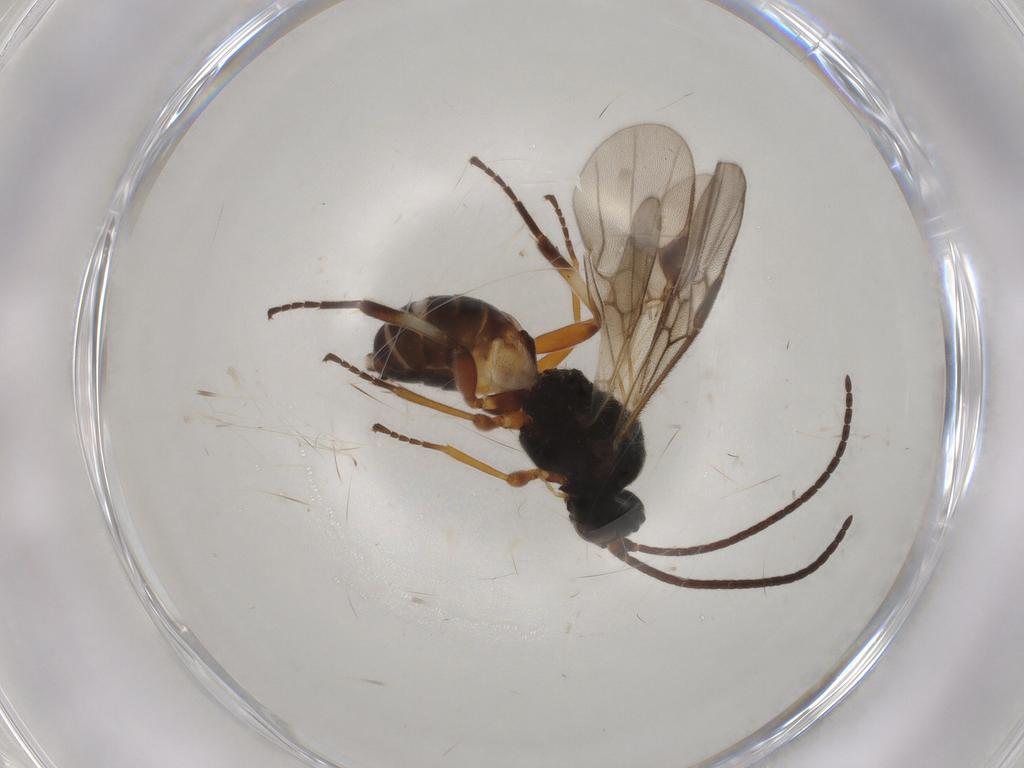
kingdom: Animalia
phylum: Arthropoda
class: Insecta
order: Hymenoptera
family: Braconidae
